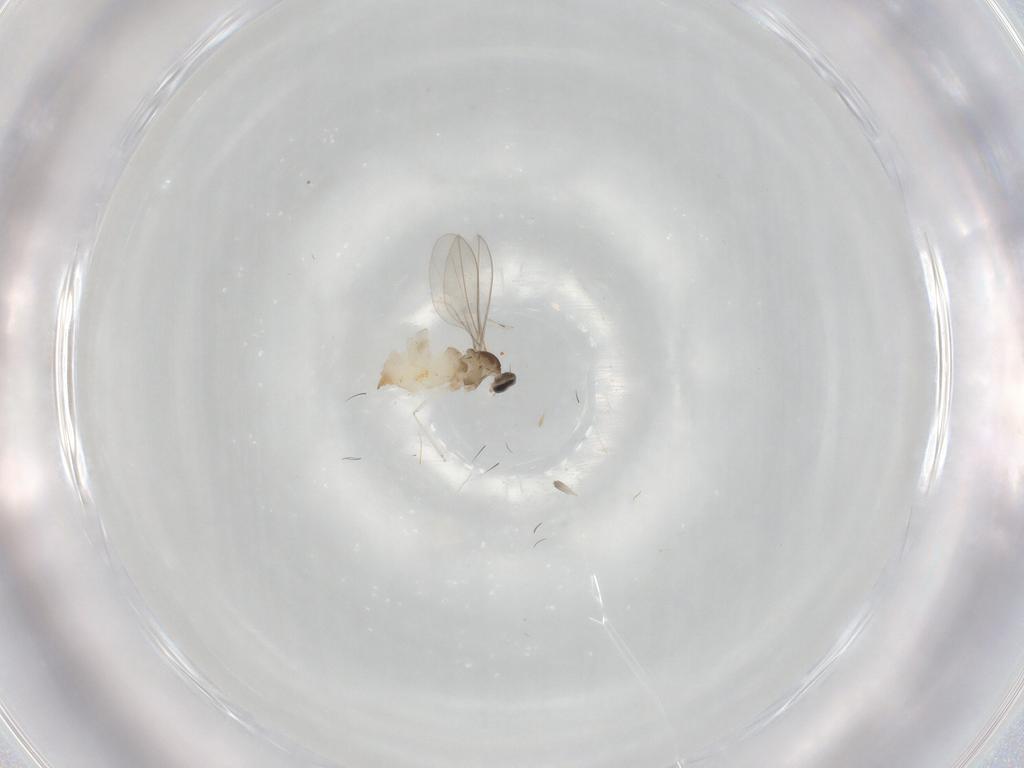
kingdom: Animalia
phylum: Arthropoda
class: Insecta
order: Diptera
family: Cecidomyiidae
